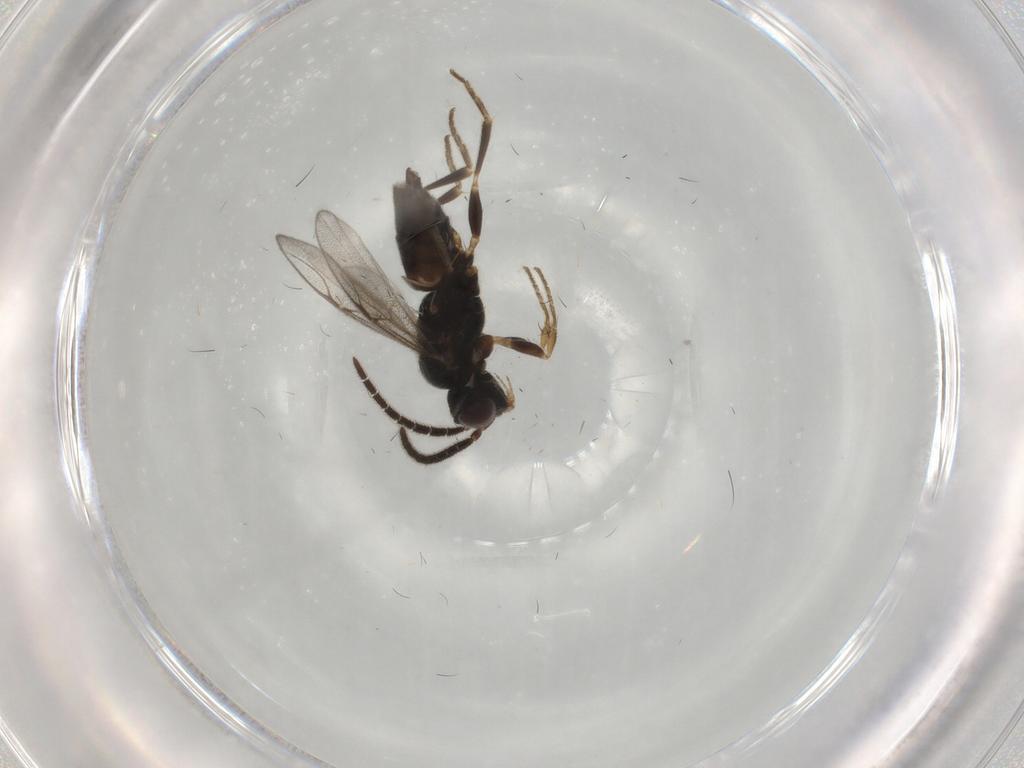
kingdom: Animalia
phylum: Arthropoda
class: Insecta
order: Hymenoptera
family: Dryinidae
